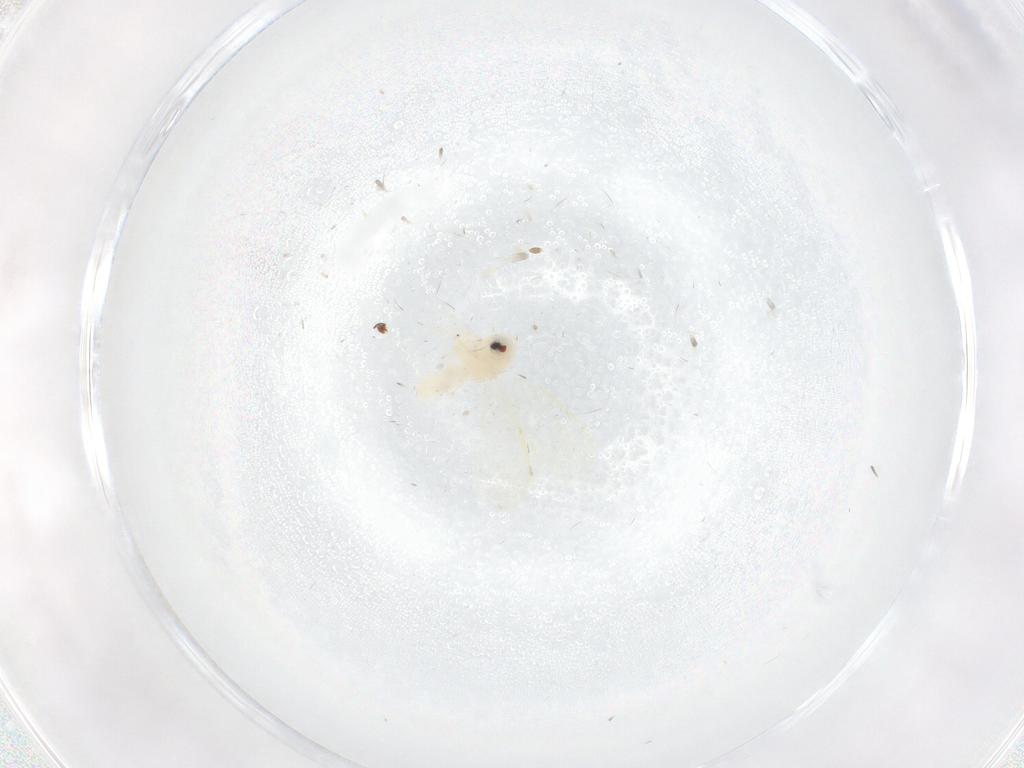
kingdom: Animalia
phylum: Arthropoda
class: Insecta
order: Diptera
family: Psychodidae
